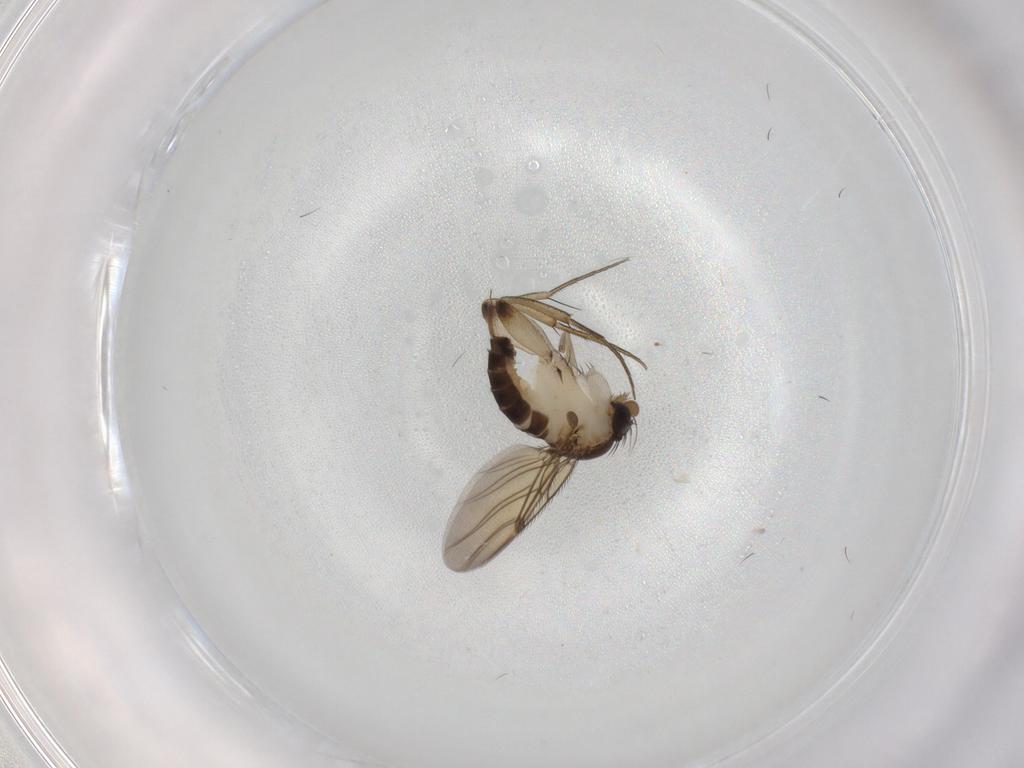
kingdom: Animalia
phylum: Arthropoda
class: Insecta
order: Diptera
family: Phoridae
